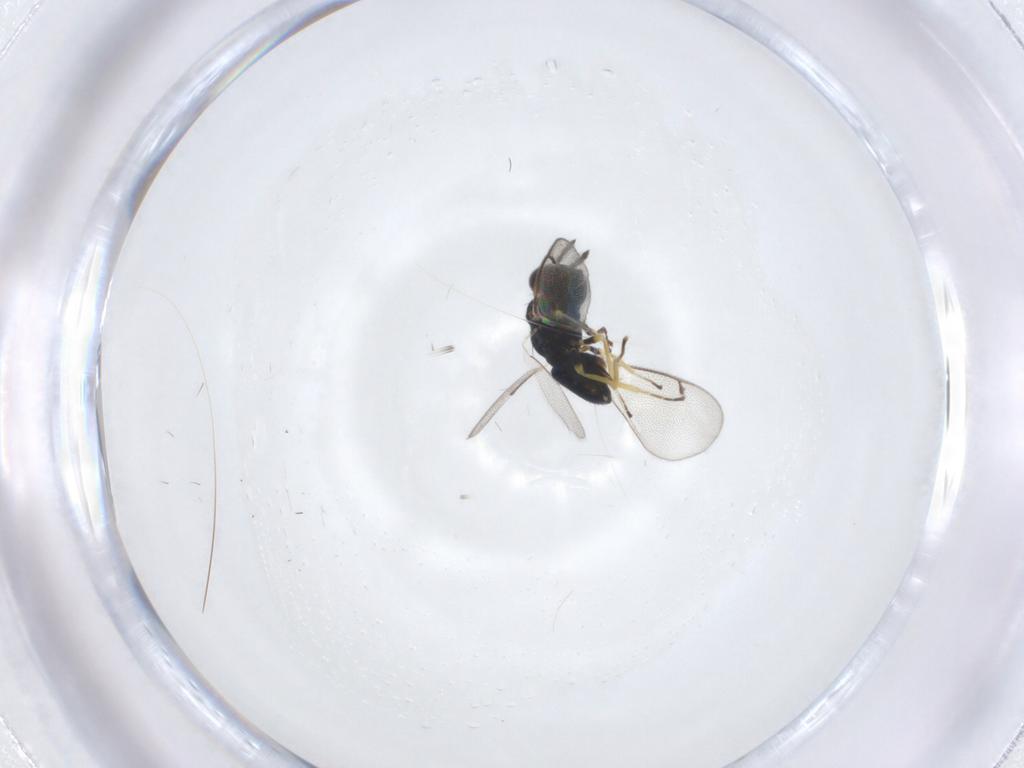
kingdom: Animalia
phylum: Arthropoda
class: Insecta
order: Hymenoptera
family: Eulophidae
